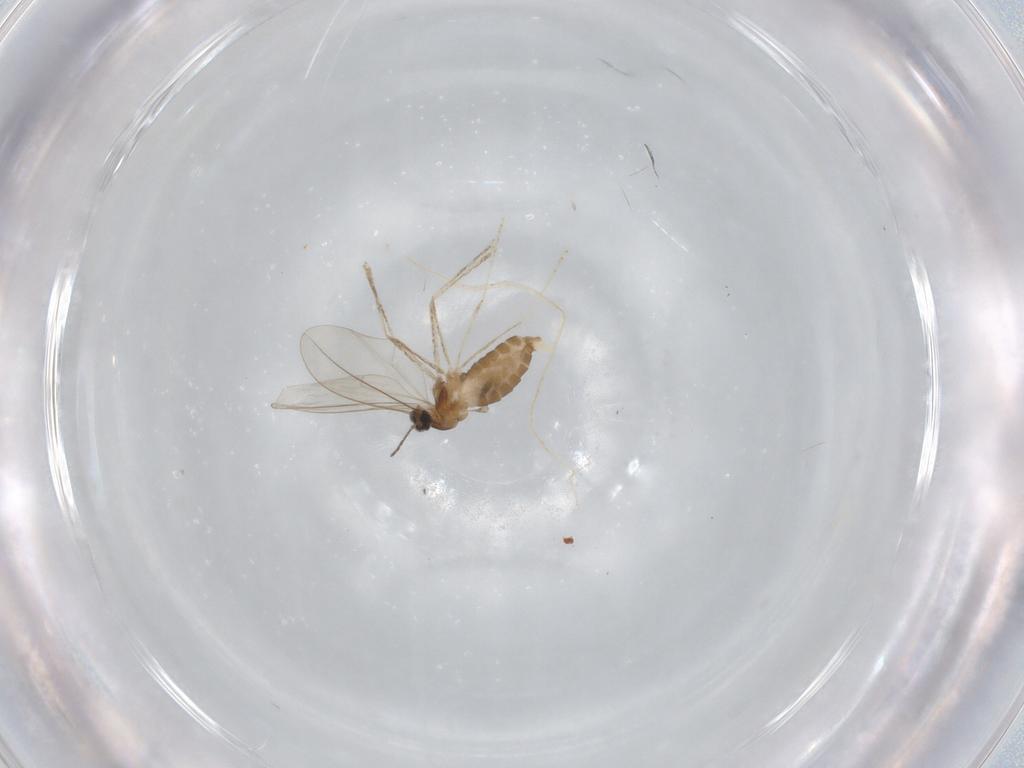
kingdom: Animalia
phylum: Arthropoda
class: Insecta
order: Diptera
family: Cecidomyiidae
